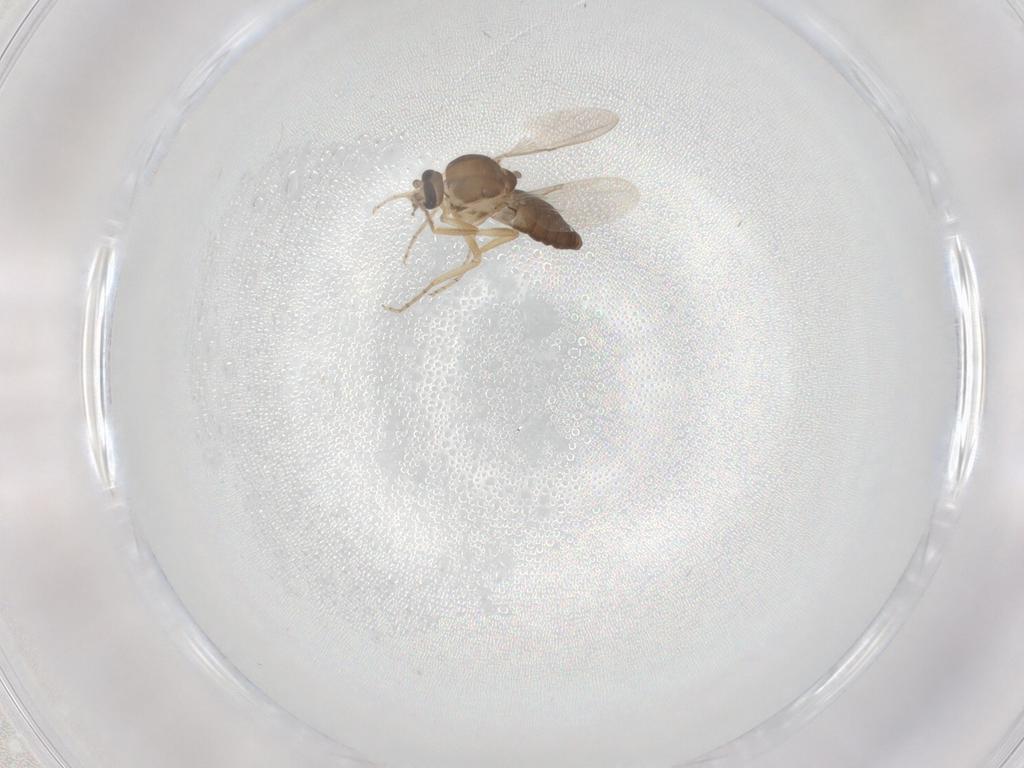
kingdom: Animalia
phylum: Arthropoda
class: Insecta
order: Diptera
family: Ceratopogonidae
